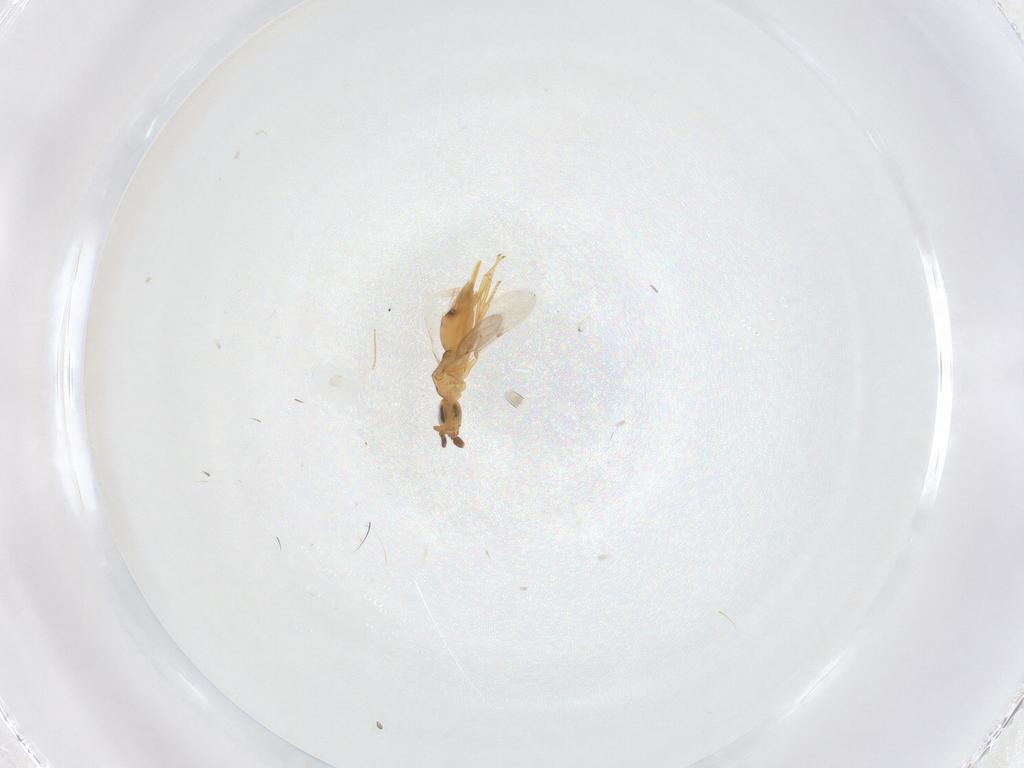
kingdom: Animalia
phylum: Arthropoda
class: Insecta
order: Hymenoptera
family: Encyrtidae
